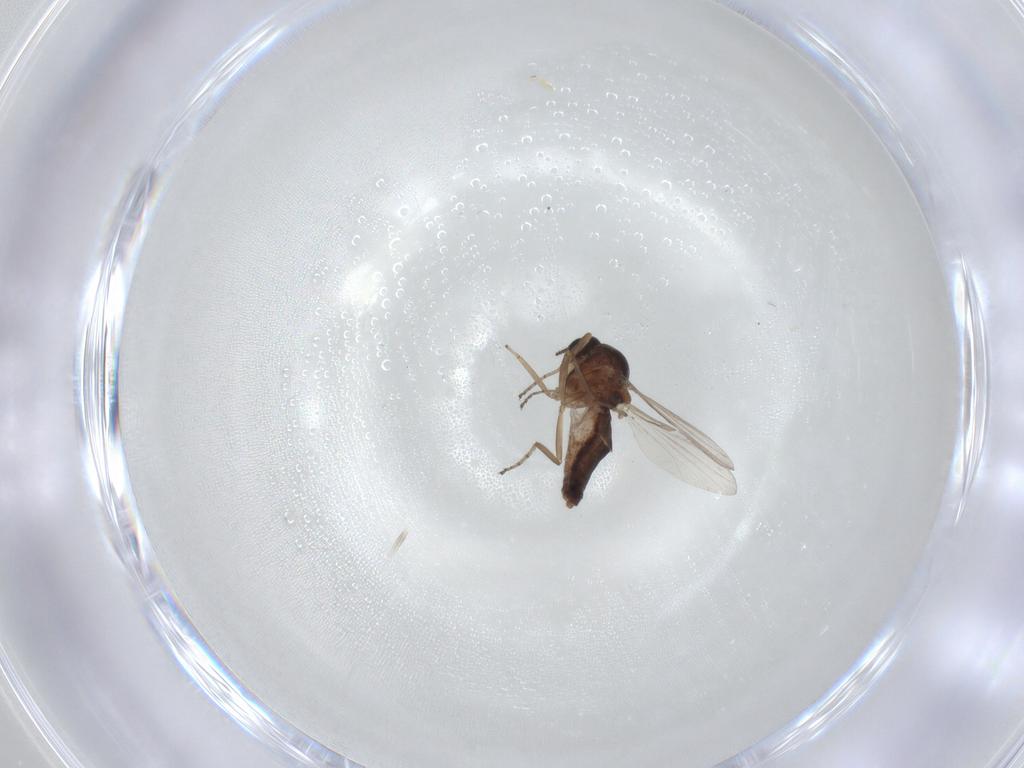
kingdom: Animalia
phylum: Arthropoda
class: Insecta
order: Diptera
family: Ceratopogonidae
